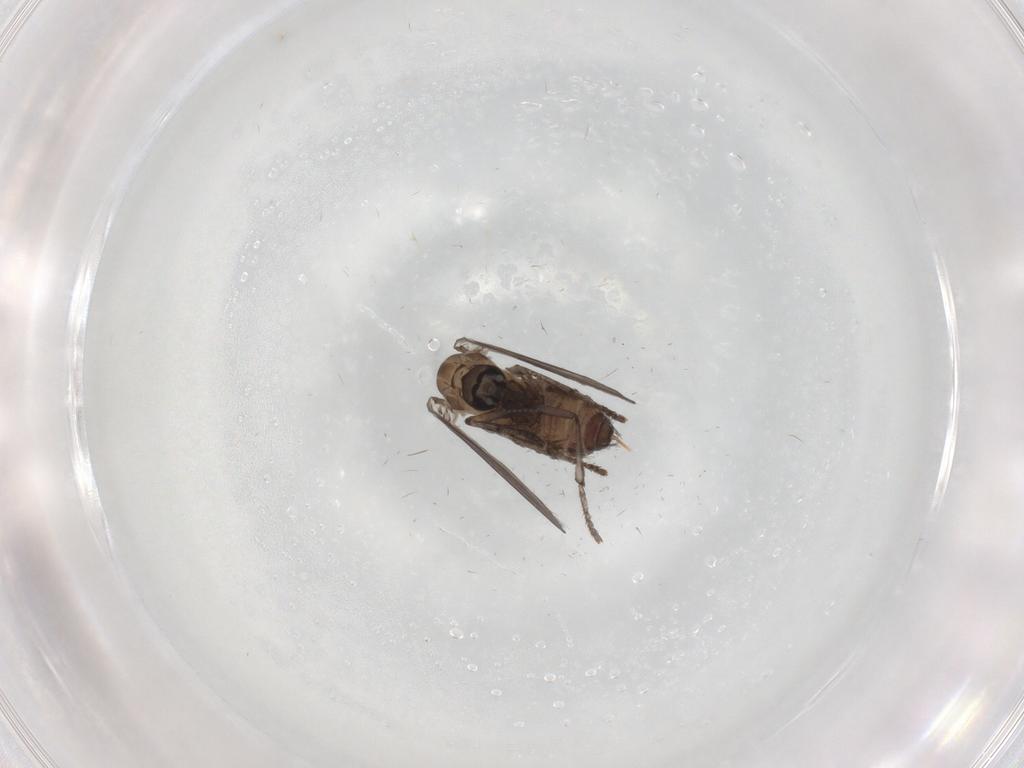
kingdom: Animalia
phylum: Arthropoda
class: Insecta
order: Diptera
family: Psychodidae
